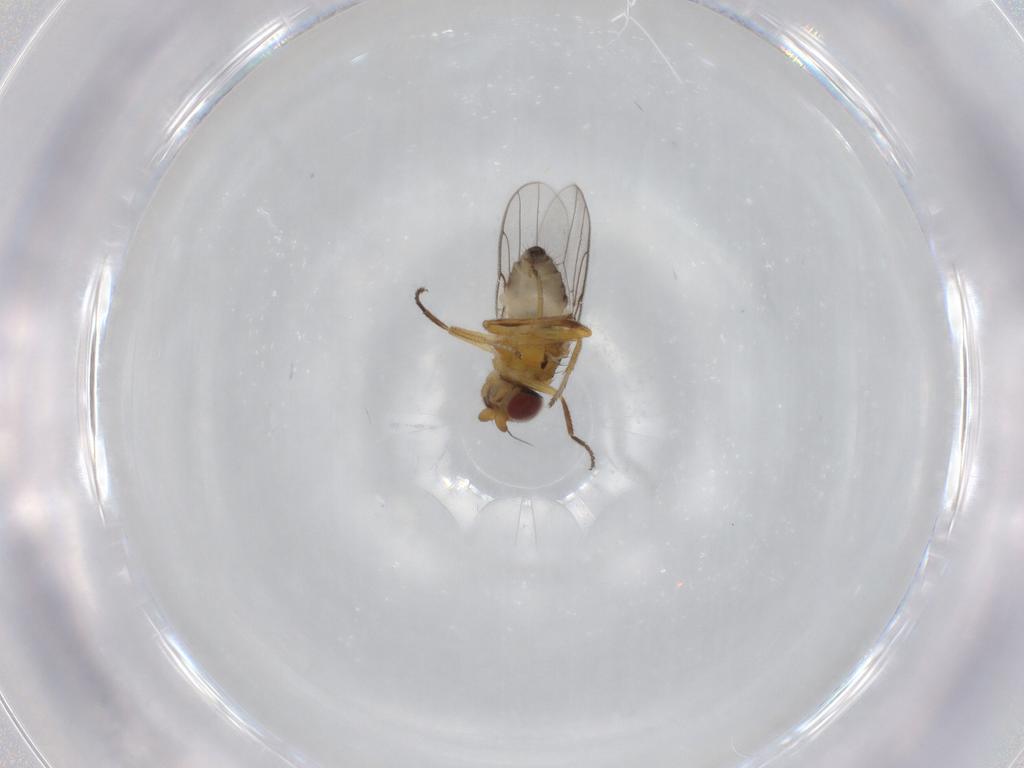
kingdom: Animalia
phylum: Arthropoda
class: Insecta
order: Diptera
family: Chloropidae
